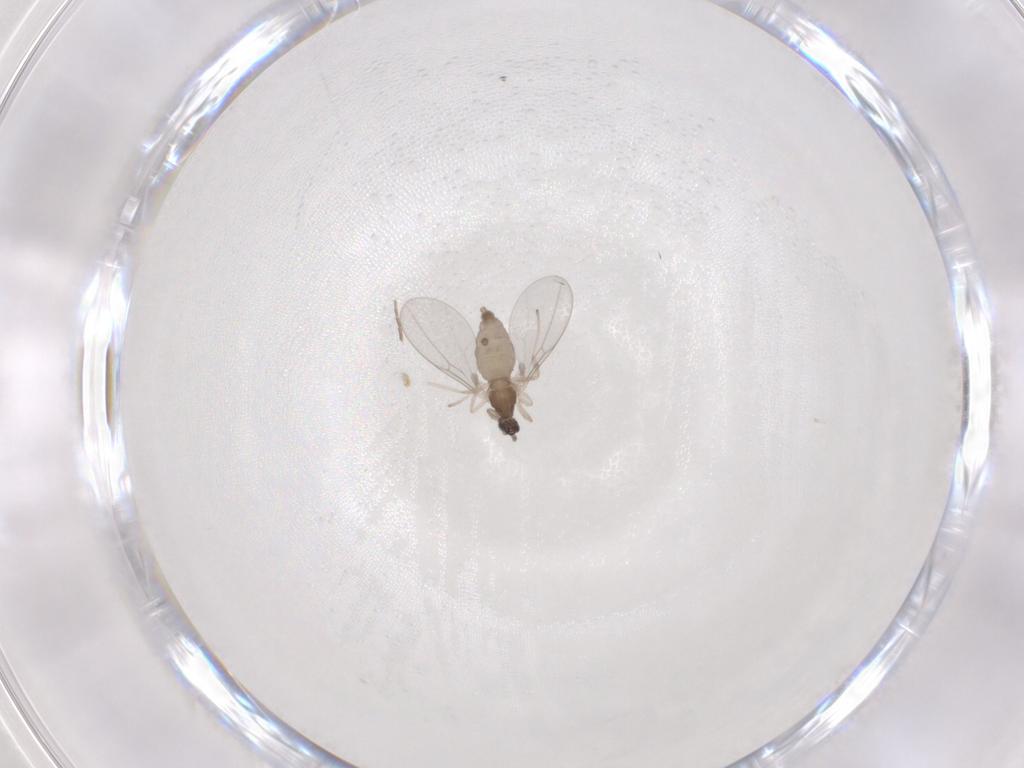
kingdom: Animalia
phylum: Arthropoda
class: Insecta
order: Diptera
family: Cecidomyiidae
